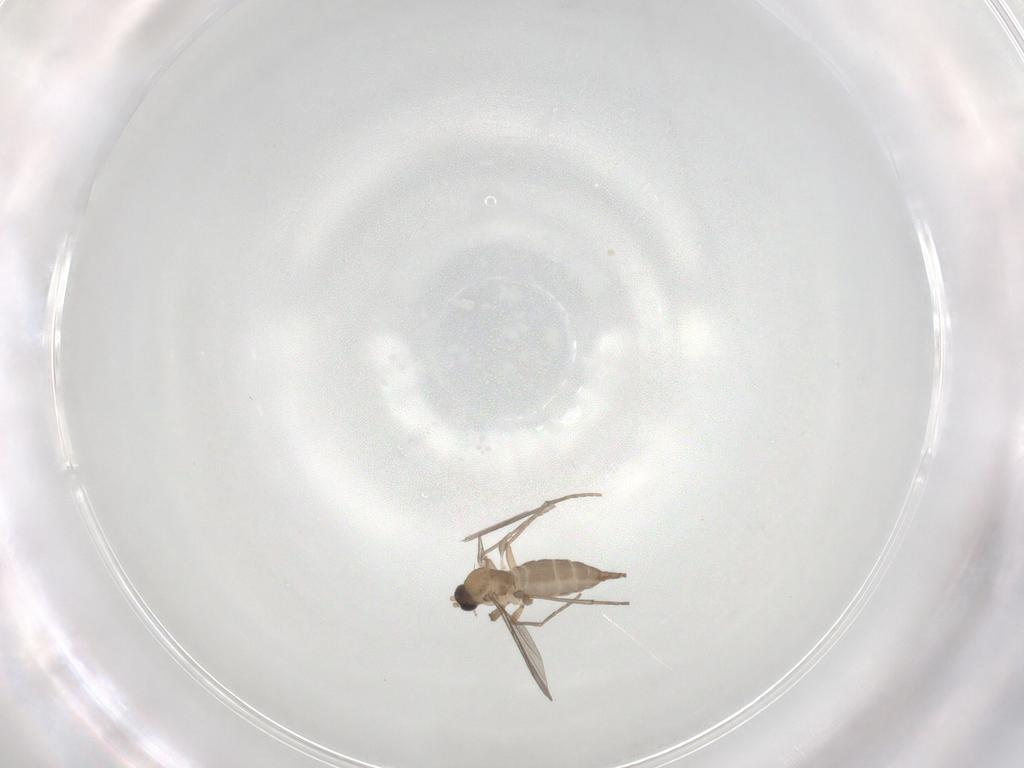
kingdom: Animalia
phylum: Arthropoda
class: Insecta
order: Diptera
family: Sciaridae
